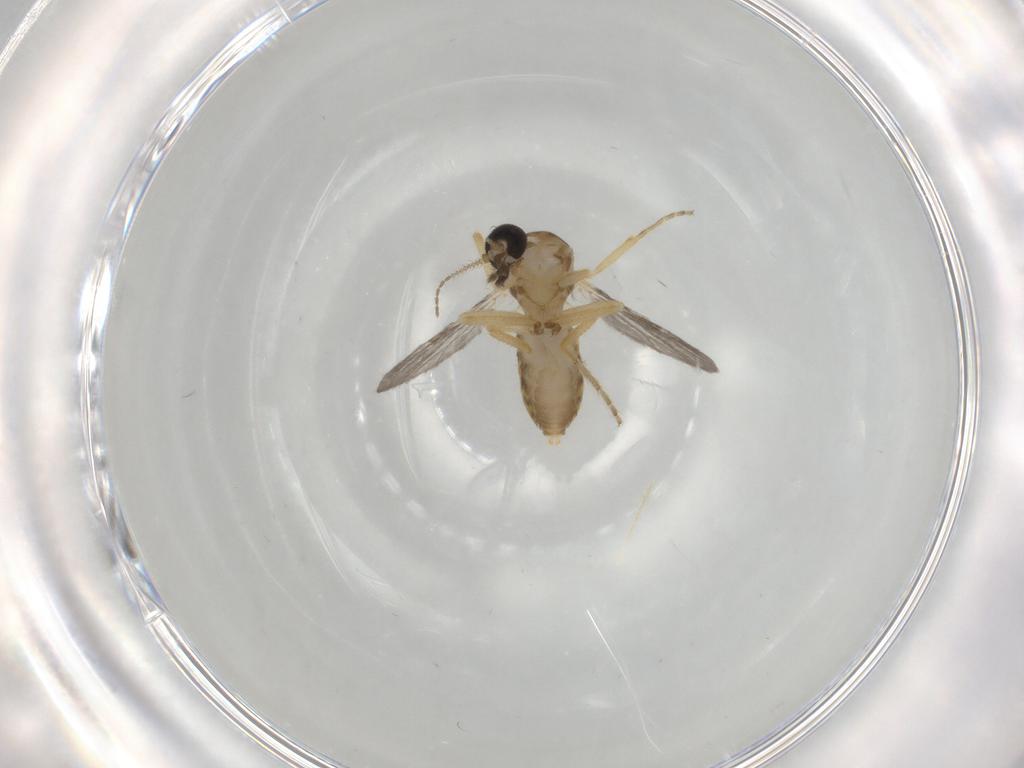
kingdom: Animalia
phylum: Arthropoda
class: Insecta
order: Diptera
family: Ceratopogonidae
